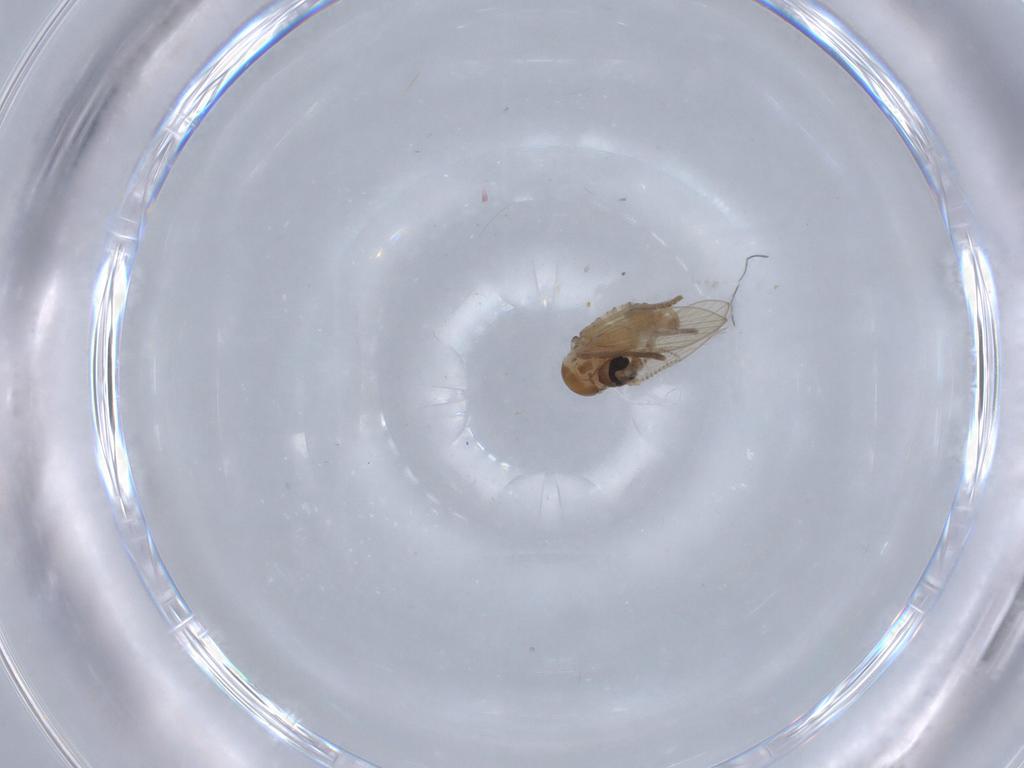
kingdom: Animalia
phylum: Arthropoda
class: Insecta
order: Diptera
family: Psychodidae
